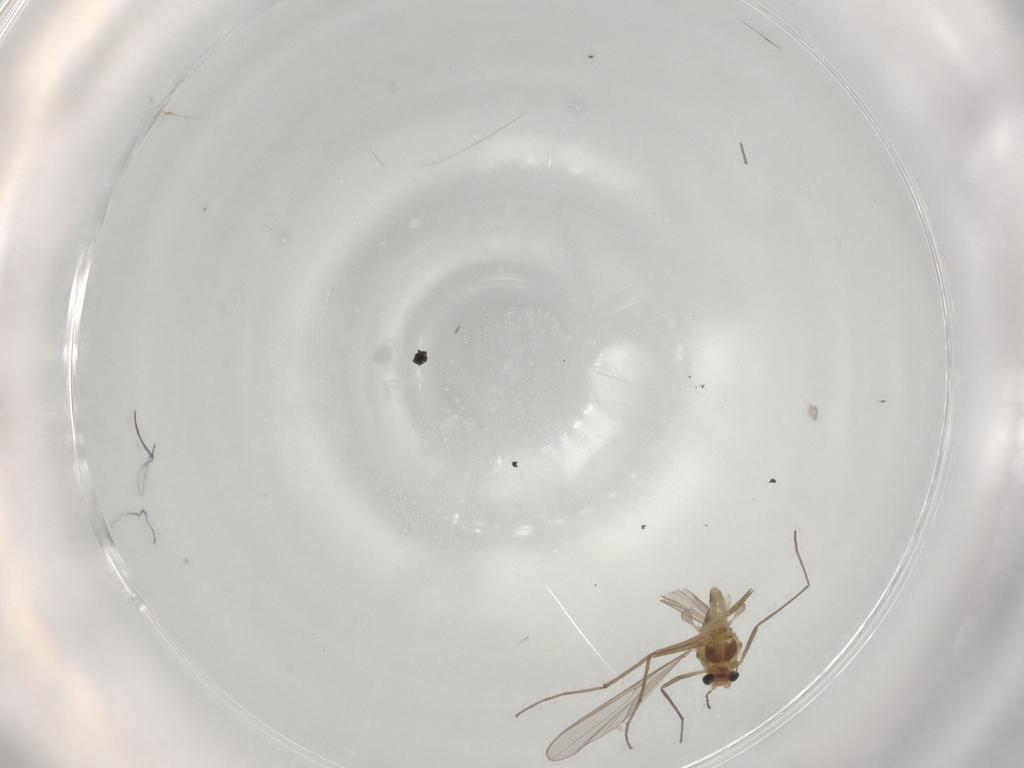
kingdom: Animalia
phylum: Arthropoda
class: Insecta
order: Diptera
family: Chironomidae
